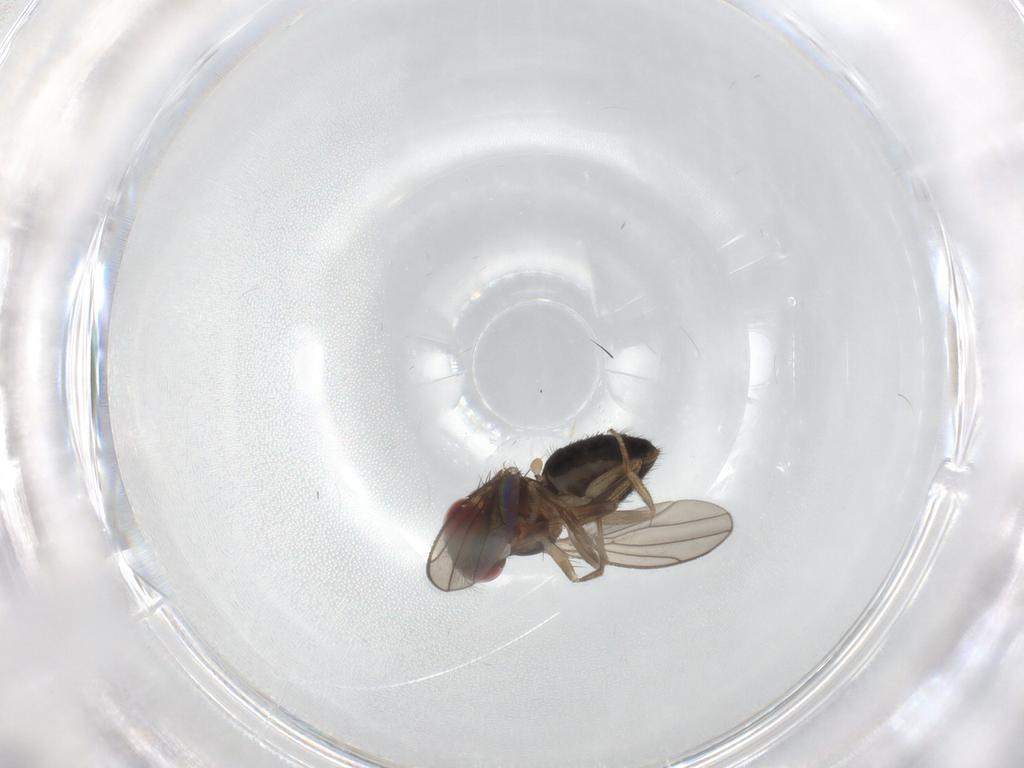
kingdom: Animalia
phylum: Arthropoda
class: Insecta
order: Diptera
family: Drosophilidae
